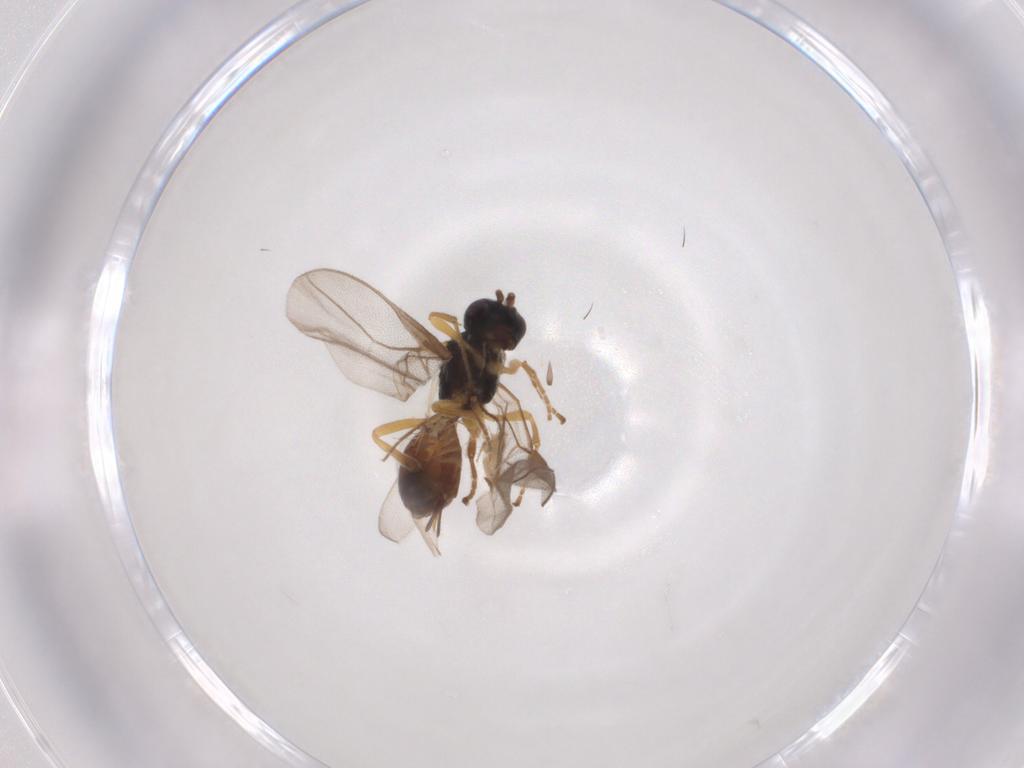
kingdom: Animalia
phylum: Arthropoda
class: Insecta
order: Hymenoptera
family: Braconidae
